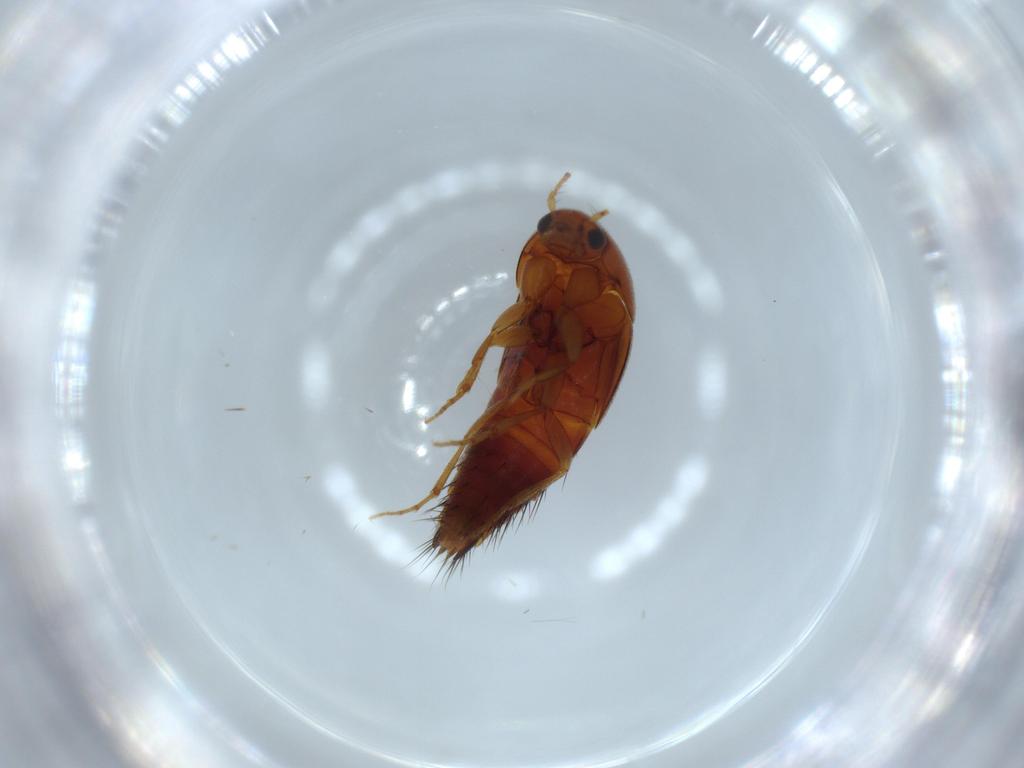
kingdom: Animalia
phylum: Arthropoda
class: Insecta
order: Coleoptera
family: Staphylinidae
